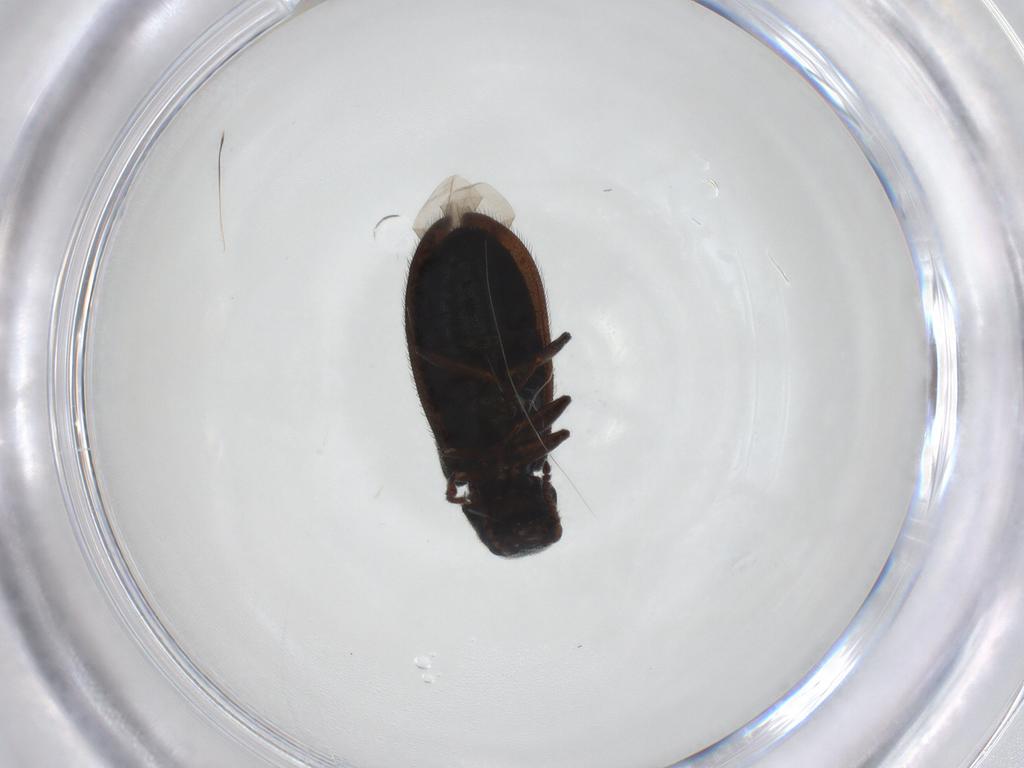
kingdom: Animalia
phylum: Arthropoda
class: Insecta
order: Coleoptera
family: Melyridae
